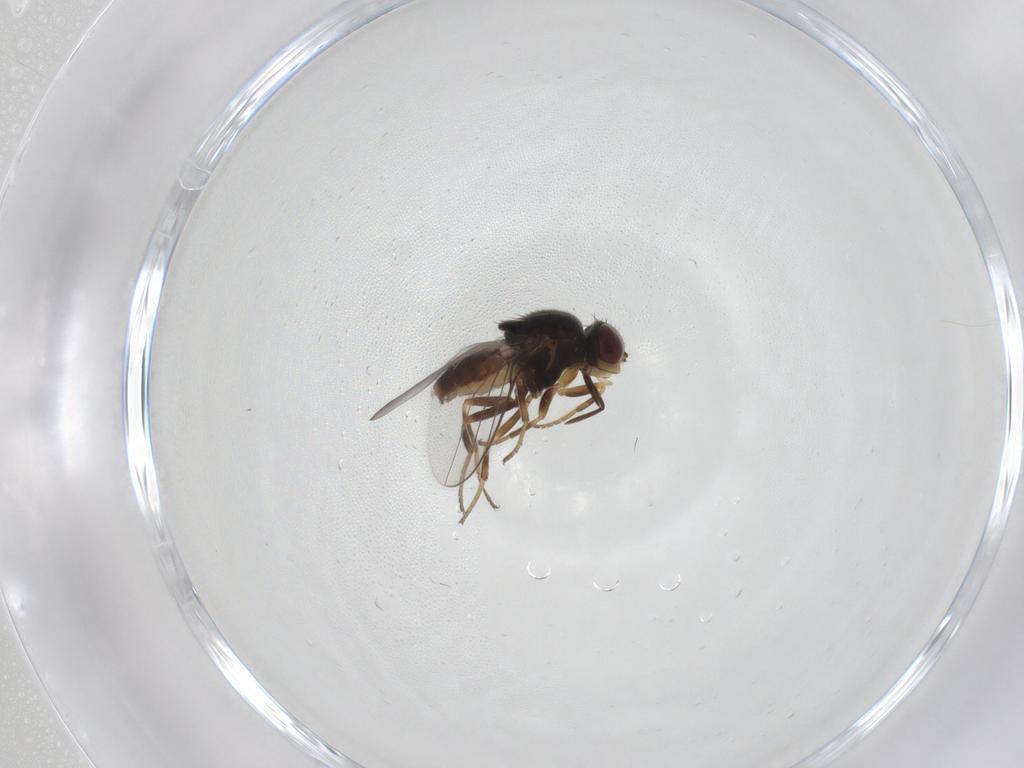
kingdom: Animalia
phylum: Arthropoda
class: Insecta
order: Diptera
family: Chloropidae
